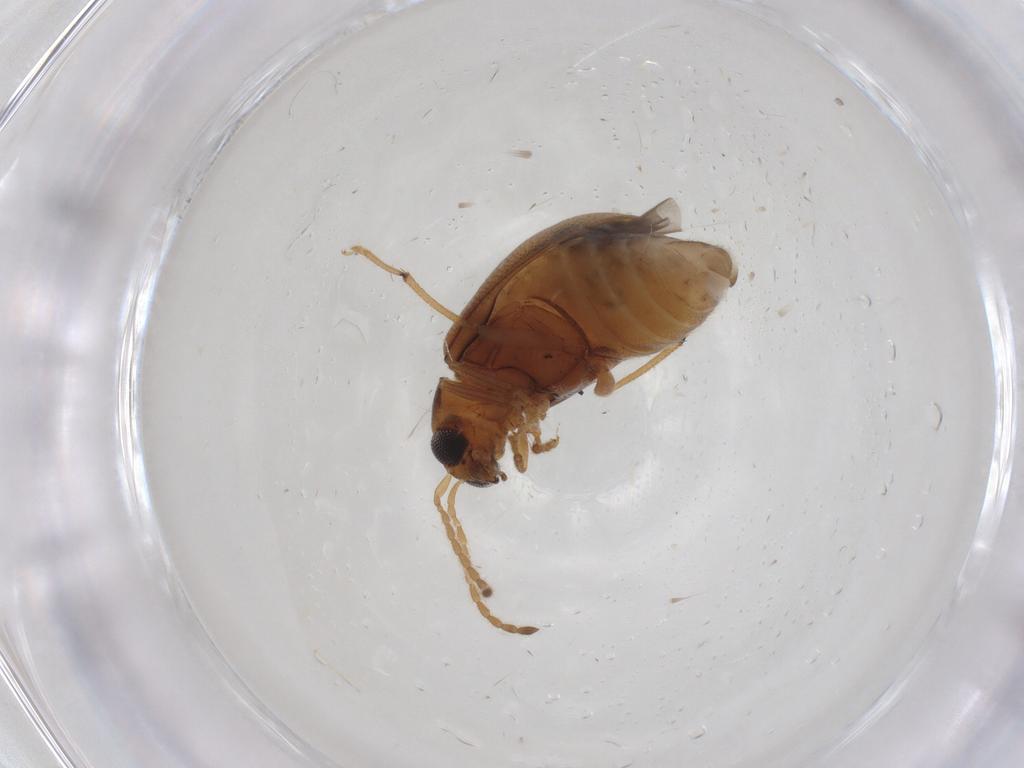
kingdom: Animalia
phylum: Arthropoda
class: Insecta
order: Coleoptera
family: Chrysomelidae
